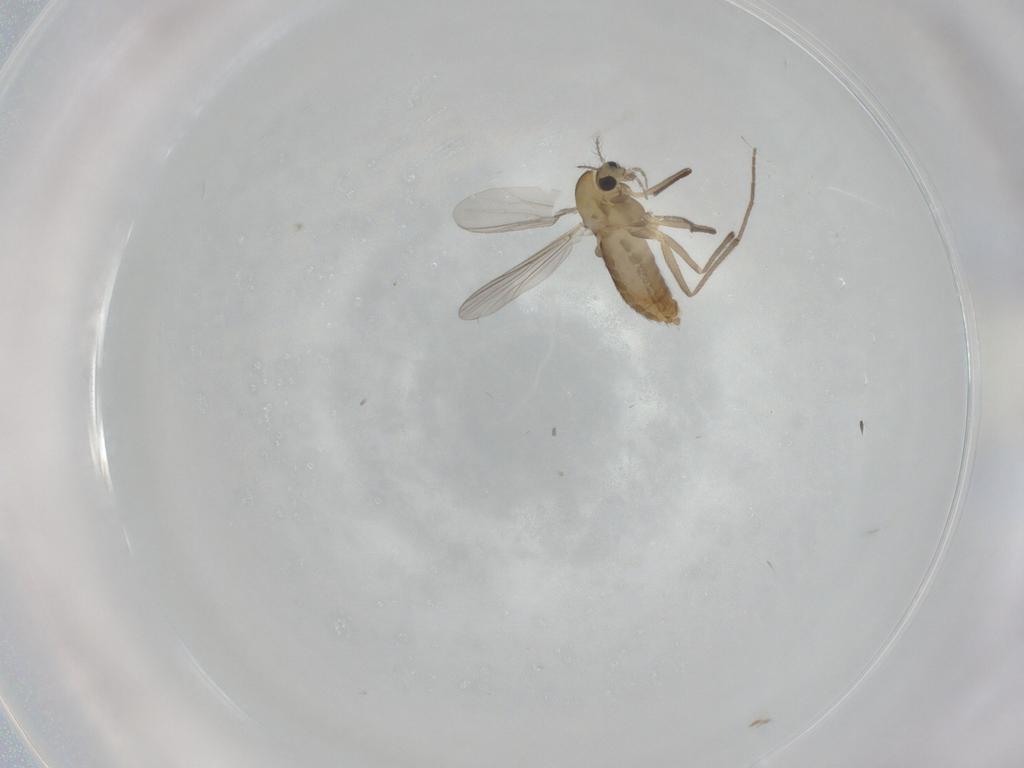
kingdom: Animalia
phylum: Arthropoda
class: Insecta
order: Diptera
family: Chironomidae
